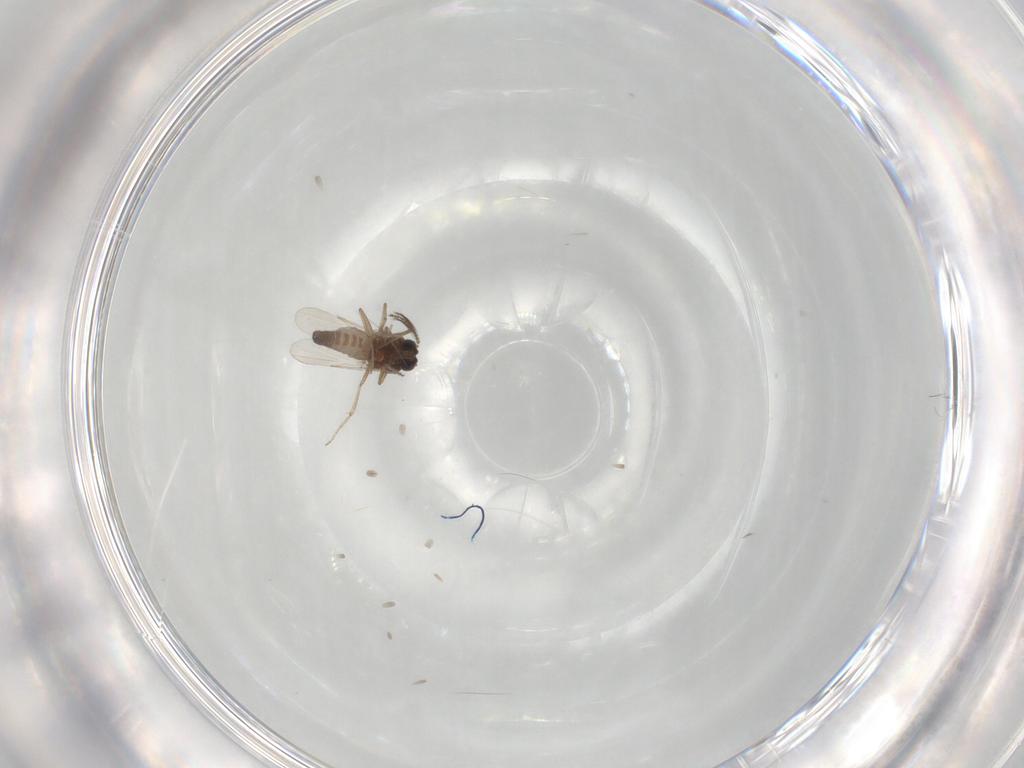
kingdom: Animalia
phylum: Arthropoda
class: Insecta
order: Diptera
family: Ceratopogonidae
